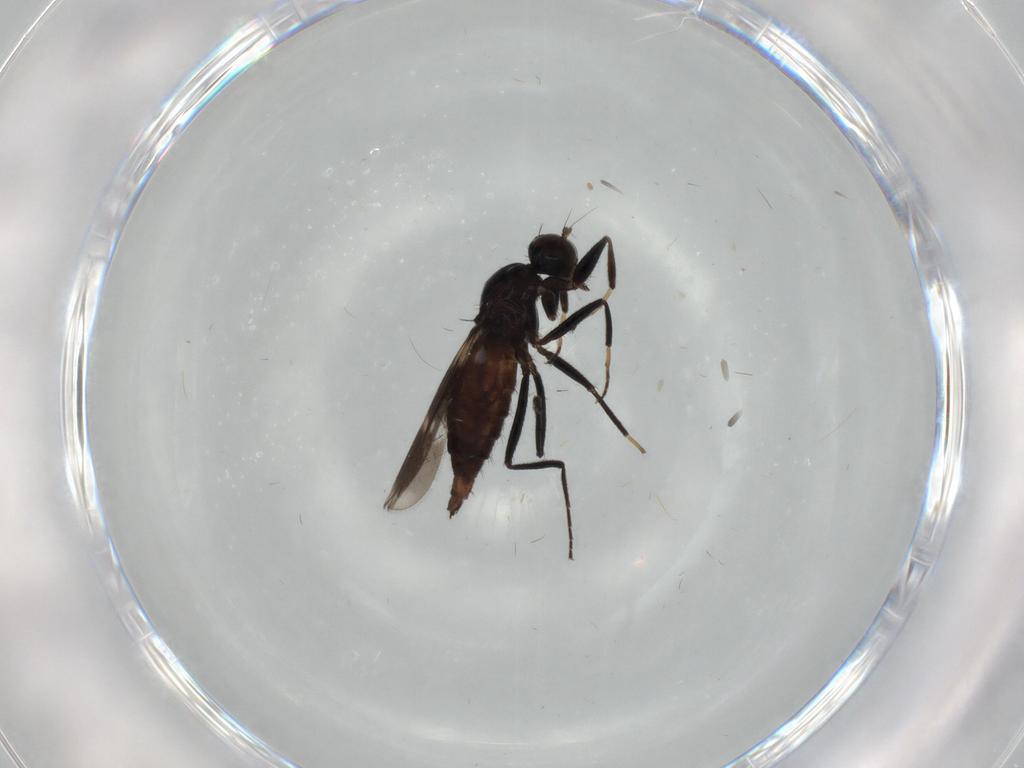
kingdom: Animalia
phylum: Arthropoda
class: Insecta
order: Diptera
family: Hybotidae
